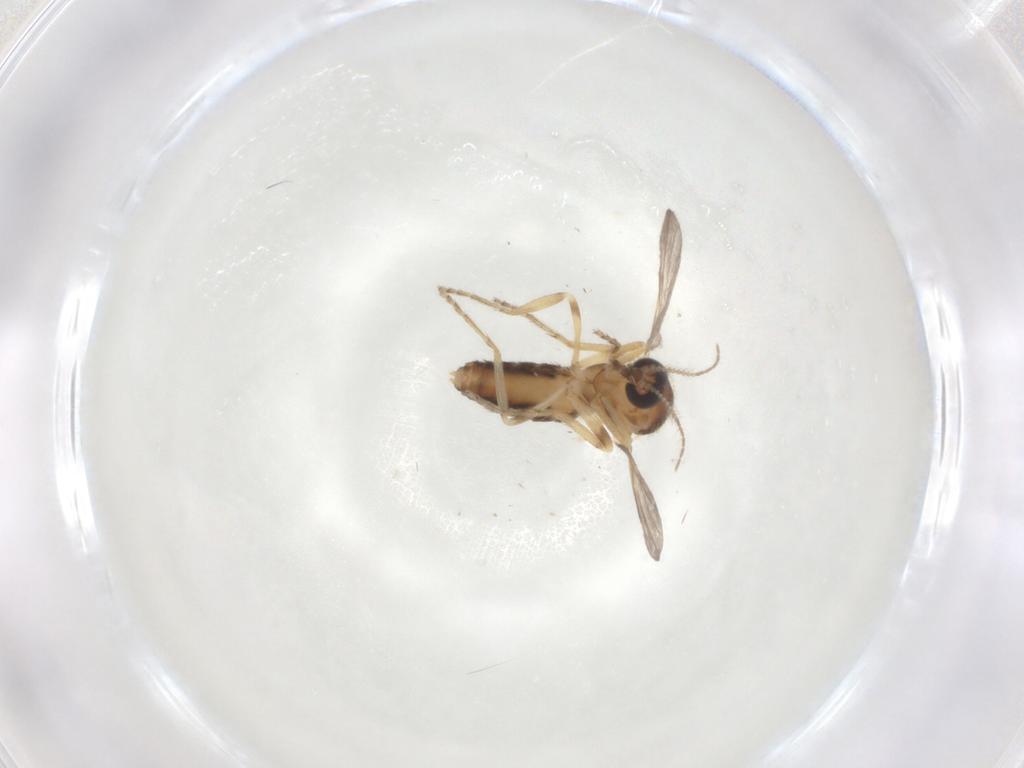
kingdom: Animalia
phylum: Arthropoda
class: Insecta
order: Diptera
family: Ceratopogonidae
